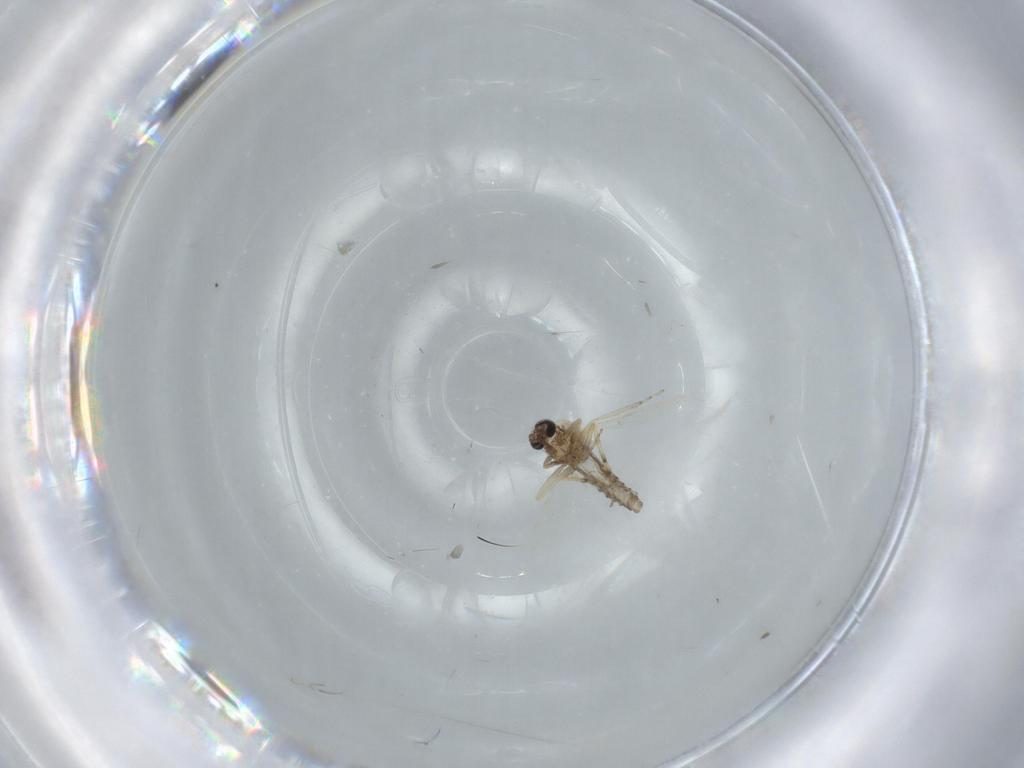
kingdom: Animalia
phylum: Arthropoda
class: Insecta
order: Diptera
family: Ceratopogonidae
